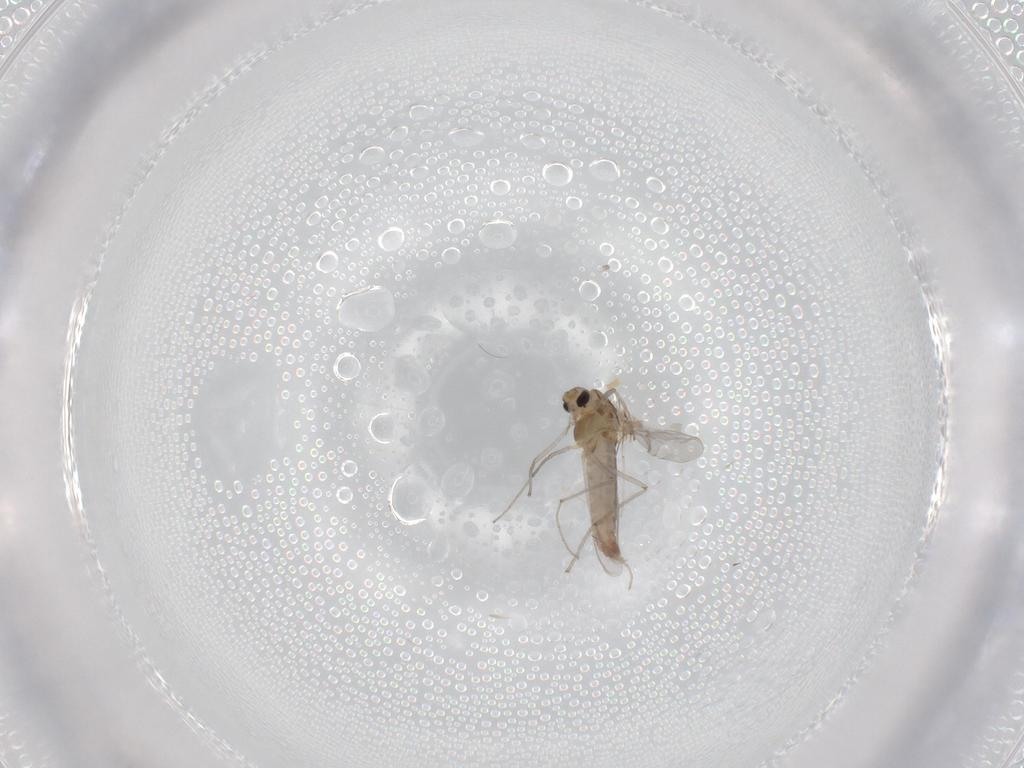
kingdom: Animalia
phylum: Arthropoda
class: Insecta
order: Diptera
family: Chironomidae
